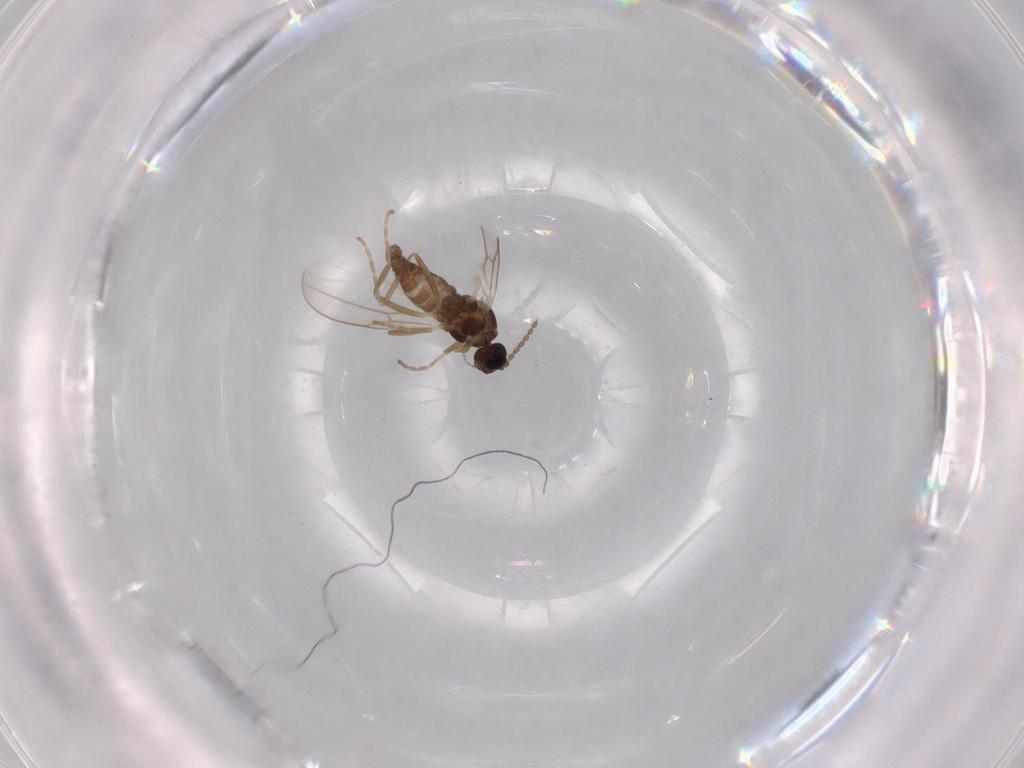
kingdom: Animalia
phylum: Arthropoda
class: Insecta
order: Diptera
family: Cecidomyiidae
